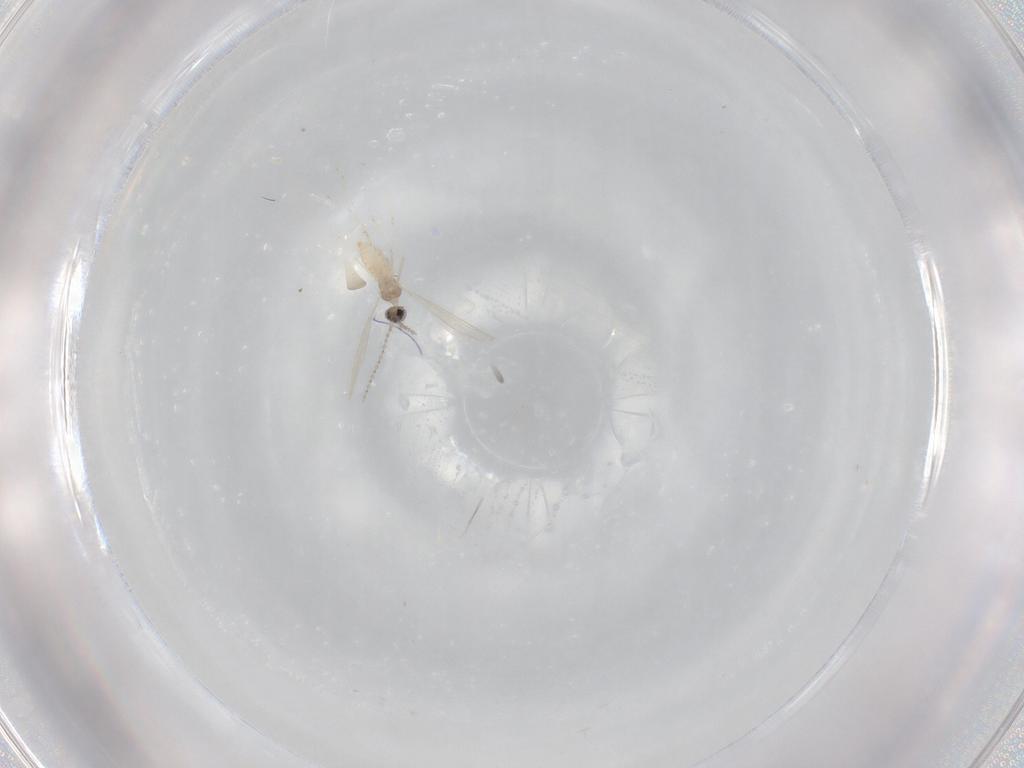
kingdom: Animalia
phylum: Arthropoda
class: Insecta
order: Diptera
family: Cecidomyiidae
